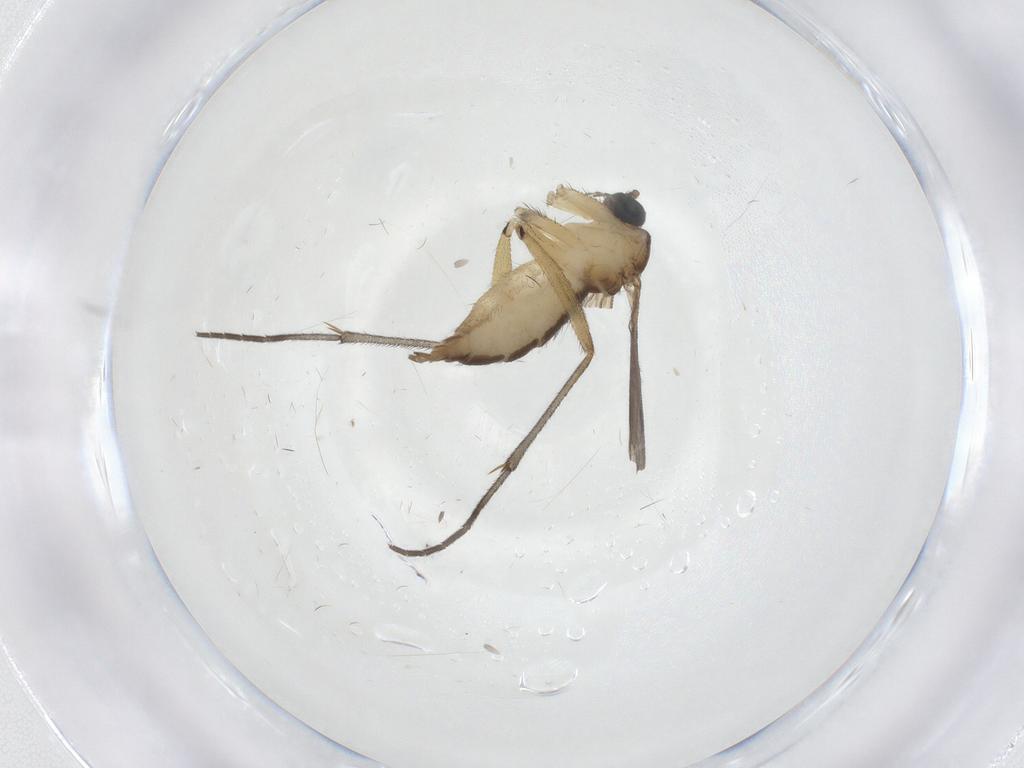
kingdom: Animalia
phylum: Arthropoda
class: Insecta
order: Diptera
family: Sciaridae
